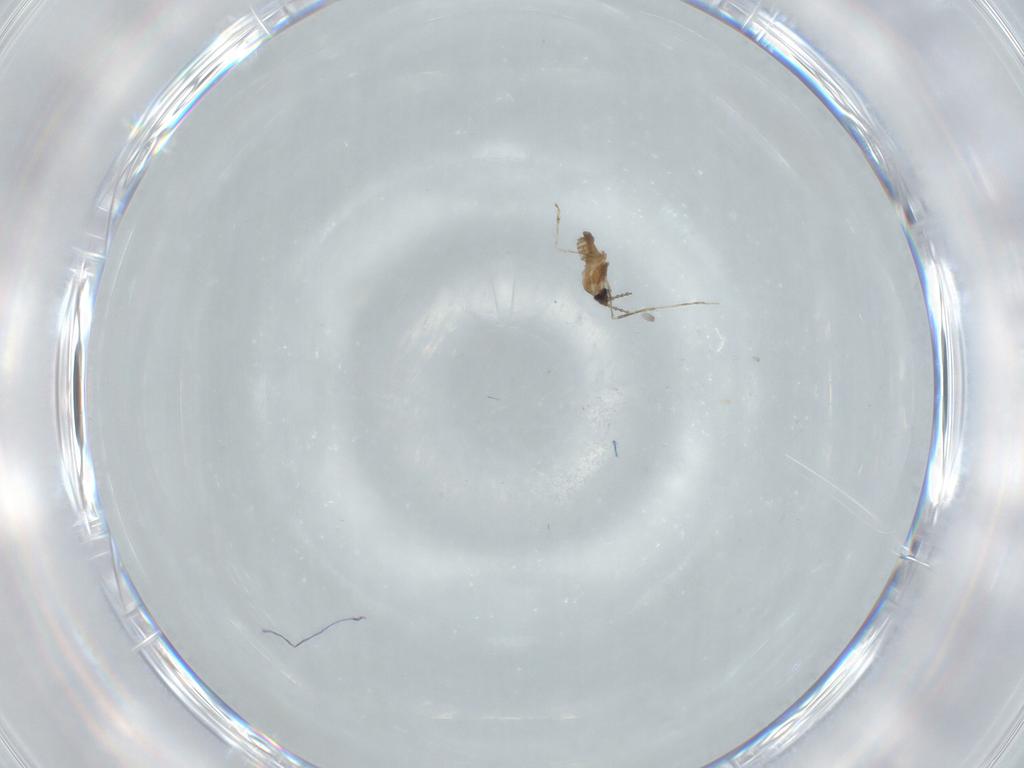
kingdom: Animalia
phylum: Arthropoda
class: Insecta
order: Diptera
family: Cecidomyiidae
